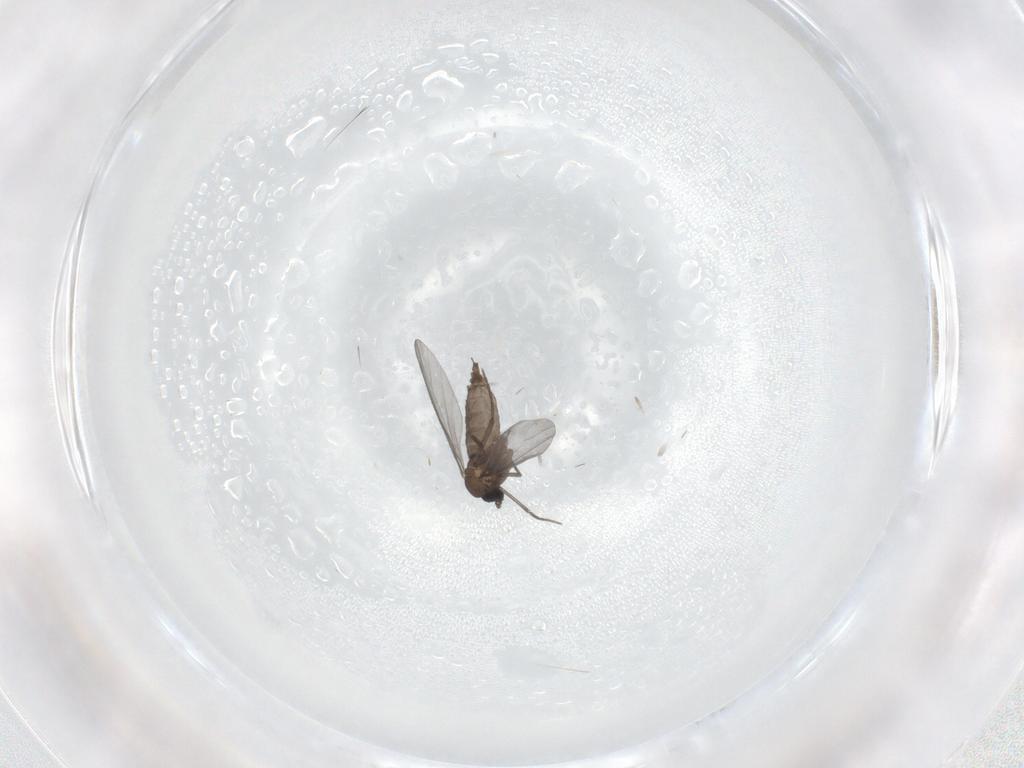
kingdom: Animalia
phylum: Arthropoda
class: Insecta
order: Diptera
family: Sciaridae
